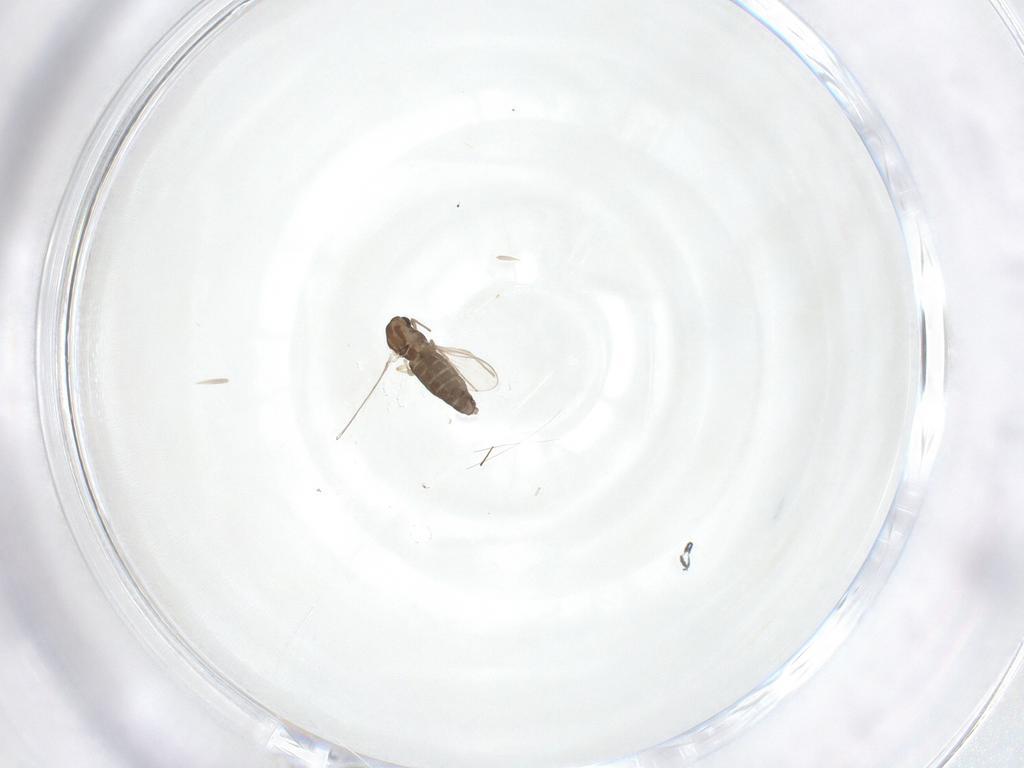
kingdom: Animalia
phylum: Arthropoda
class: Insecta
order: Diptera
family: Chironomidae
